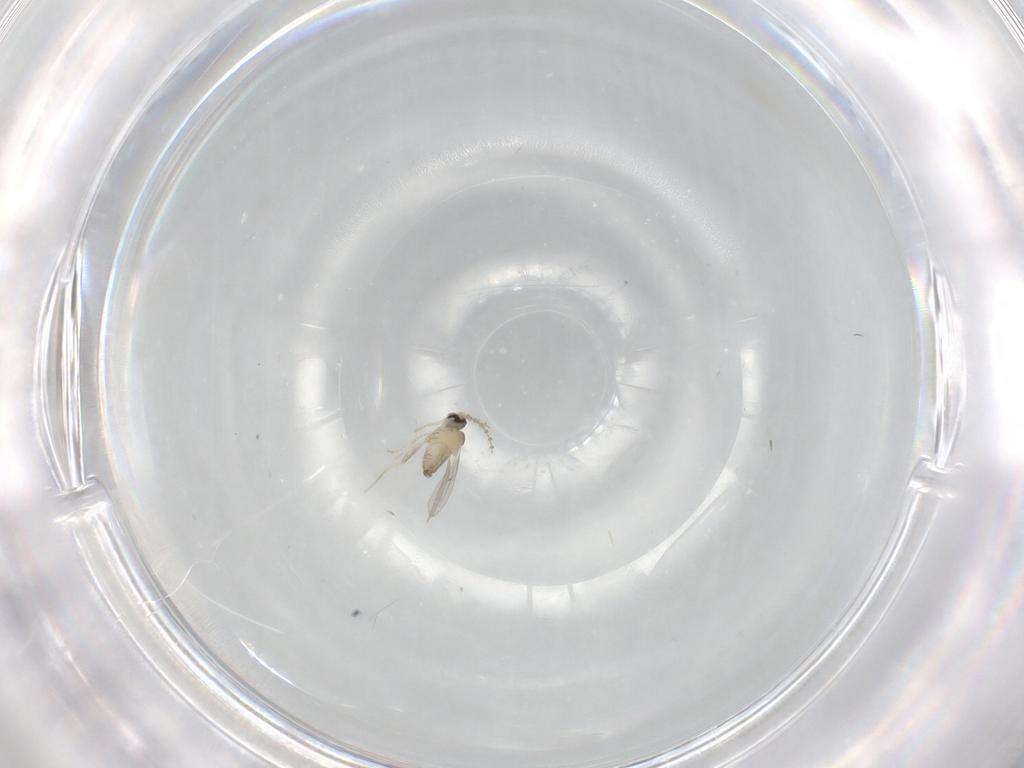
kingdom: Animalia
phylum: Arthropoda
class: Insecta
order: Diptera
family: Cecidomyiidae
